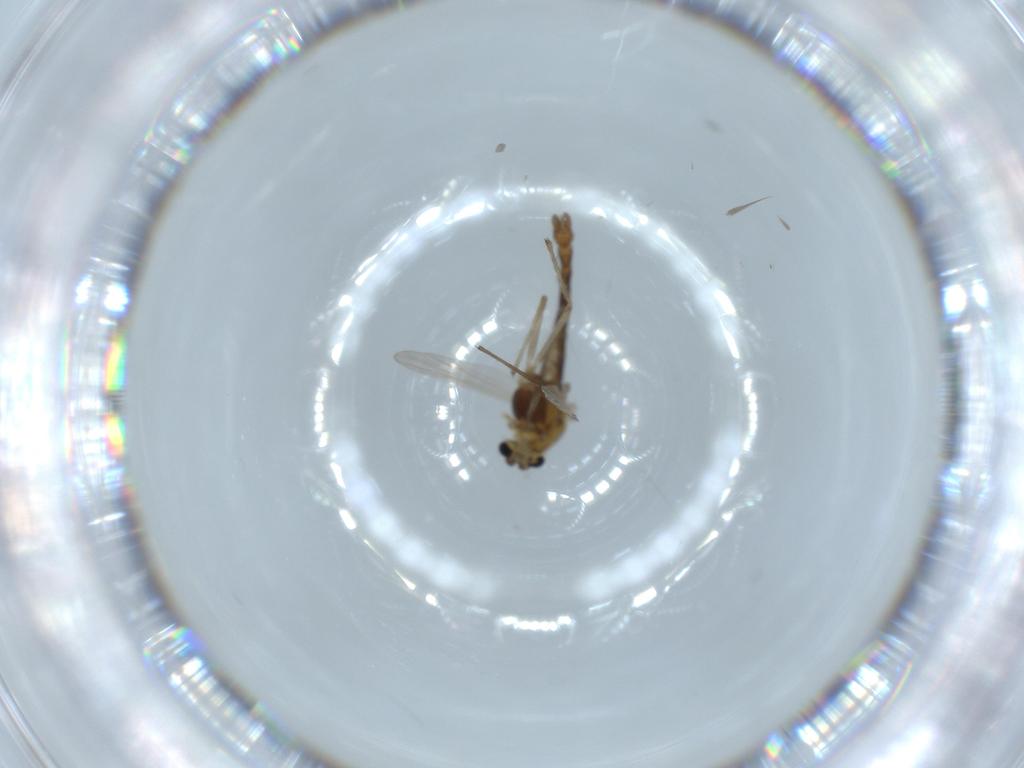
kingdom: Animalia
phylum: Arthropoda
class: Insecta
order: Diptera
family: Chironomidae
